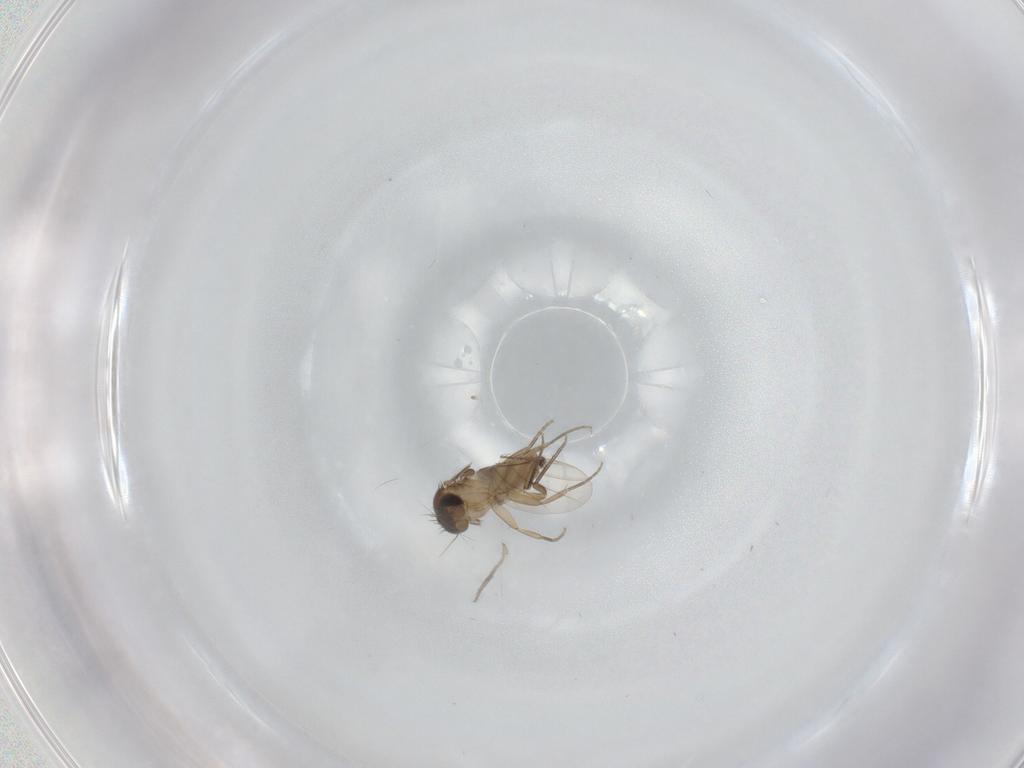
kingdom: Animalia
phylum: Arthropoda
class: Insecta
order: Diptera
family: Phoridae
